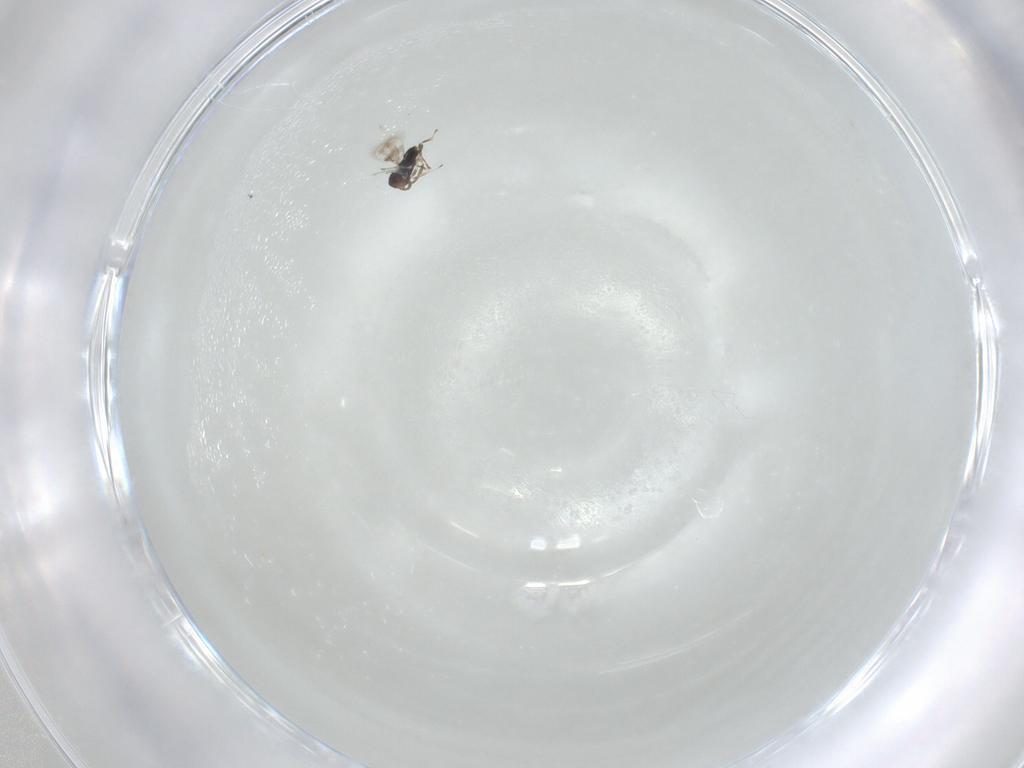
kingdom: Animalia
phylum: Arthropoda
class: Insecta
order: Hymenoptera
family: Azotidae
